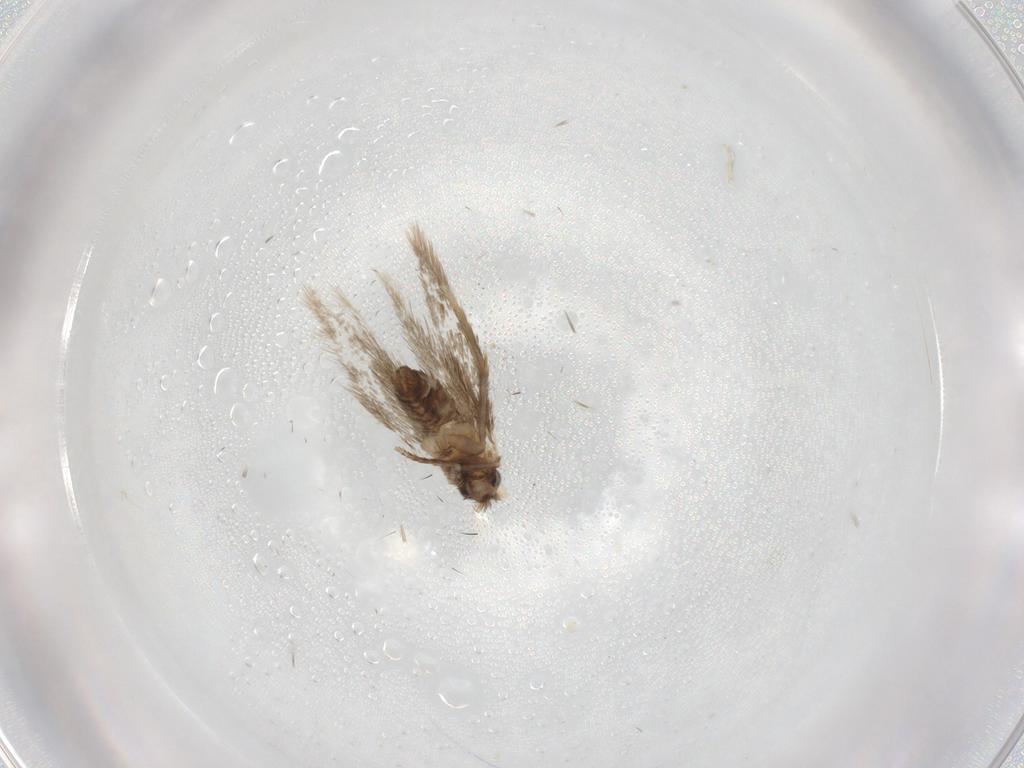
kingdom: Animalia
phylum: Arthropoda
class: Insecta
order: Lepidoptera
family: Nepticulidae
